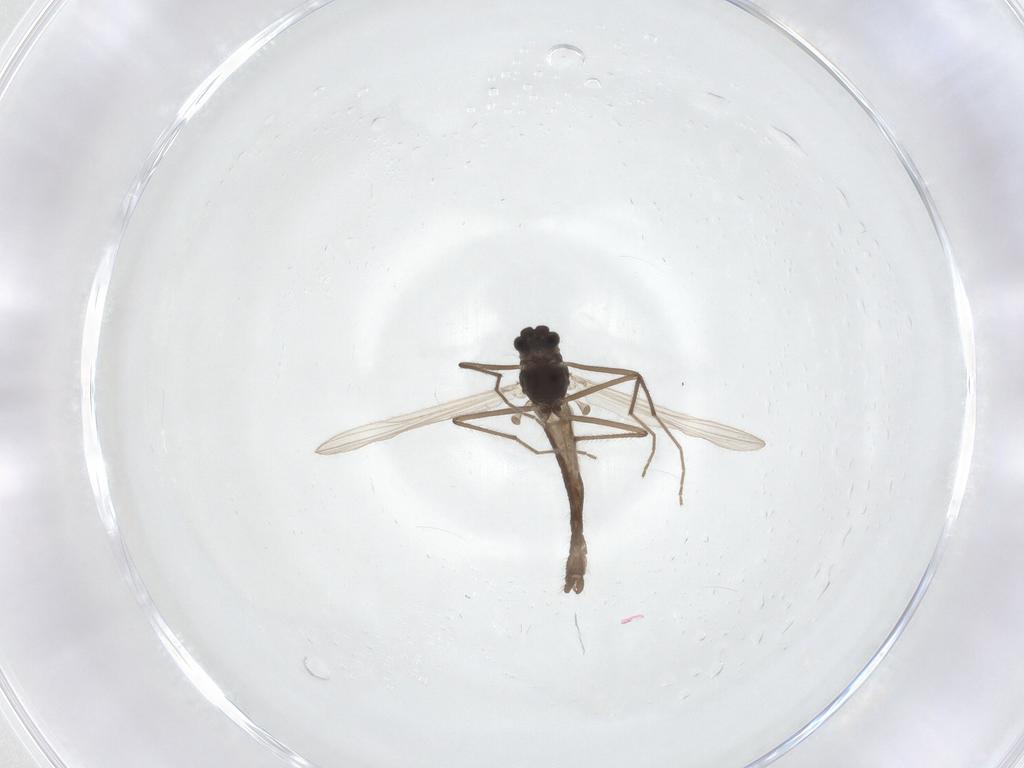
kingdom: Animalia
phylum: Arthropoda
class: Insecta
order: Diptera
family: Chironomidae
